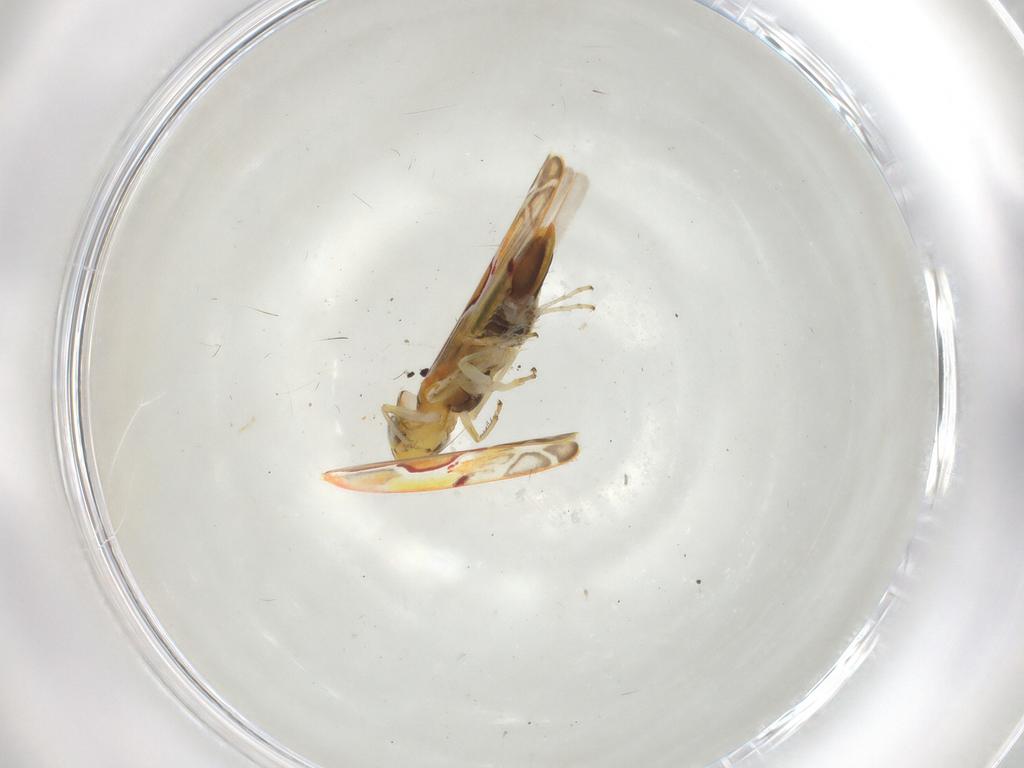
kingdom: Animalia
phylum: Arthropoda
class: Insecta
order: Hemiptera
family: Cicadellidae
